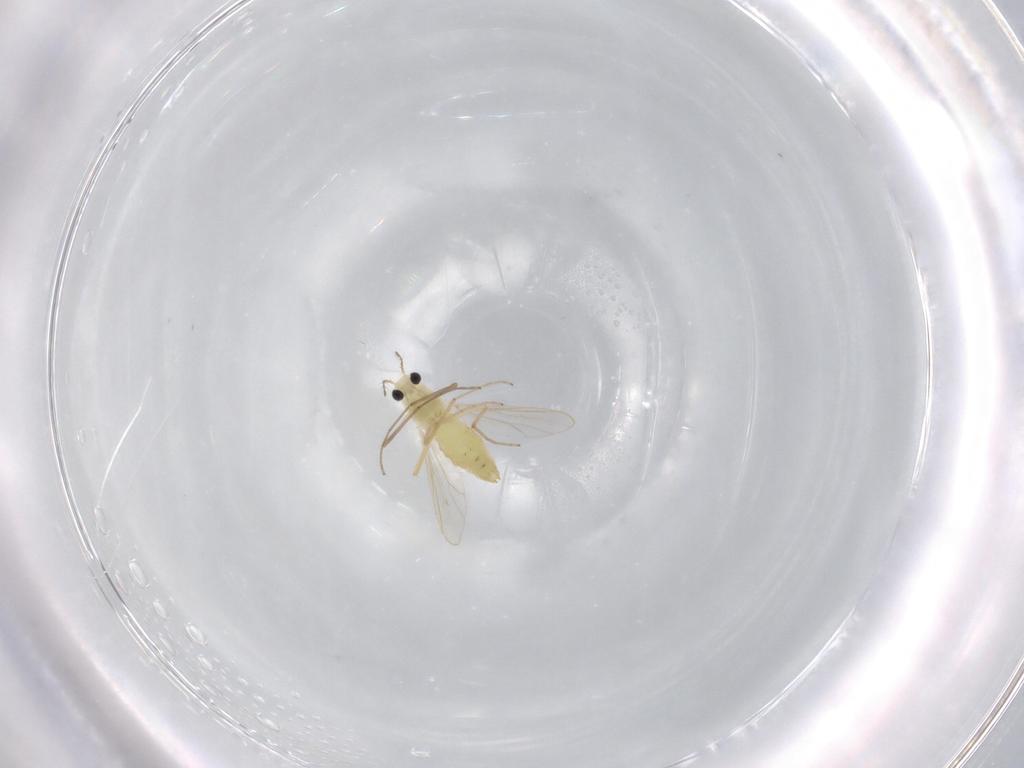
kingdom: Animalia
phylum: Arthropoda
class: Insecta
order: Diptera
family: Chironomidae
